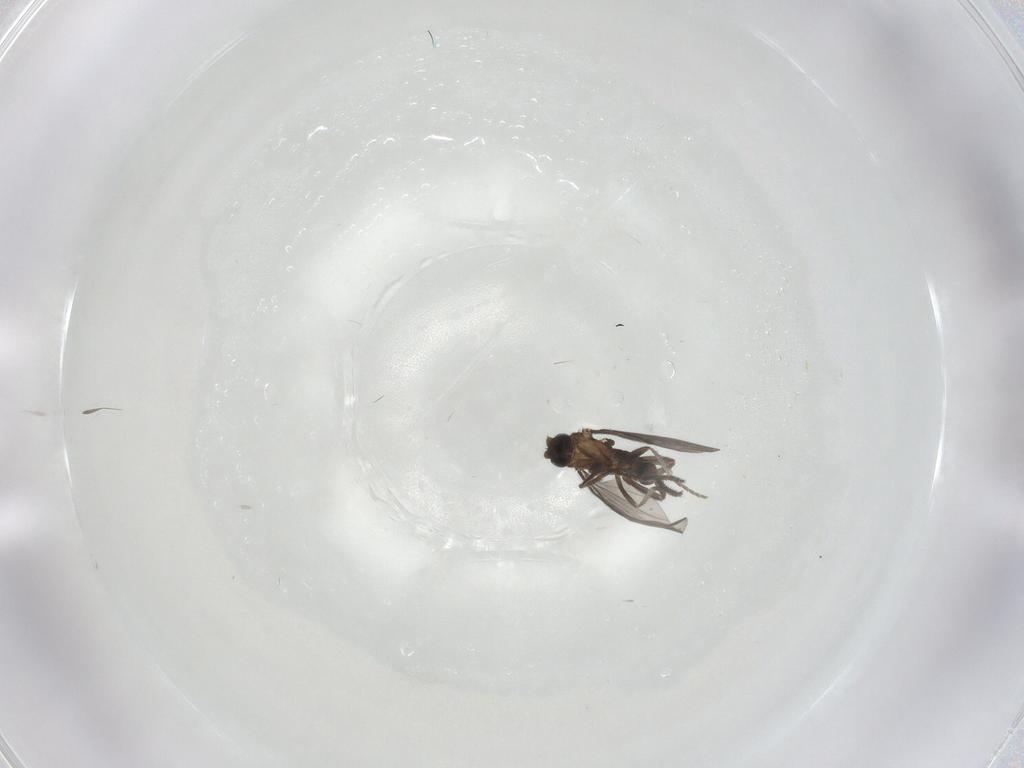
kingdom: Animalia
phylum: Arthropoda
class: Insecta
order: Diptera
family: Phoridae
